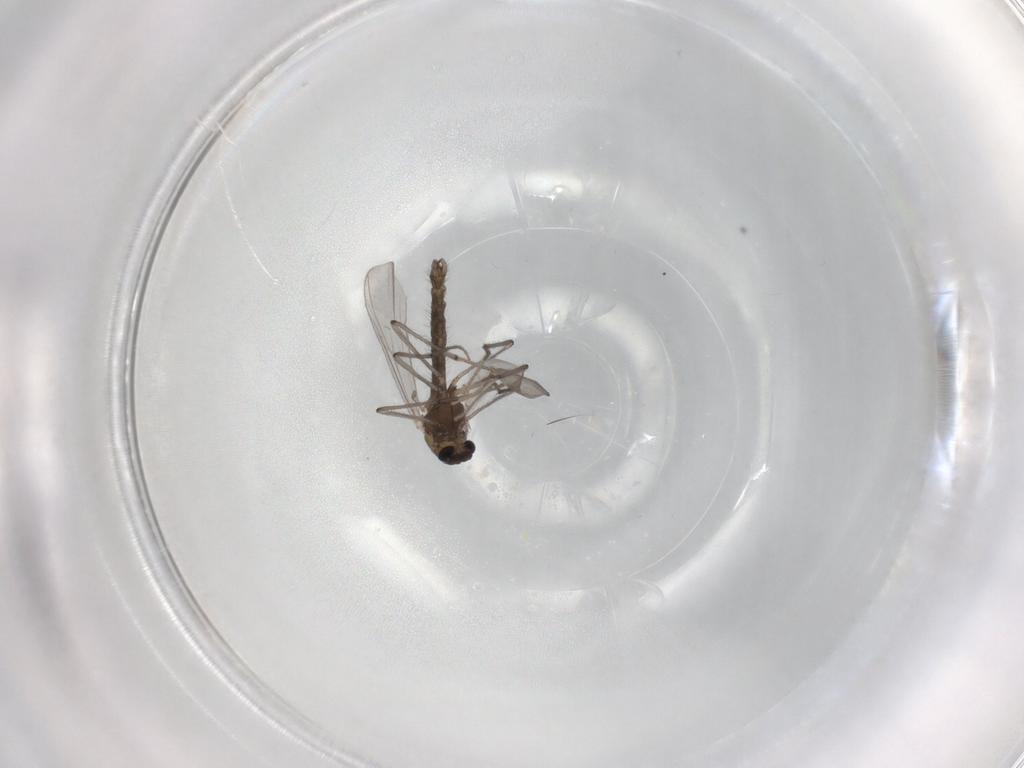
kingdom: Animalia
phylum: Arthropoda
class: Insecta
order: Diptera
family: Chironomidae
